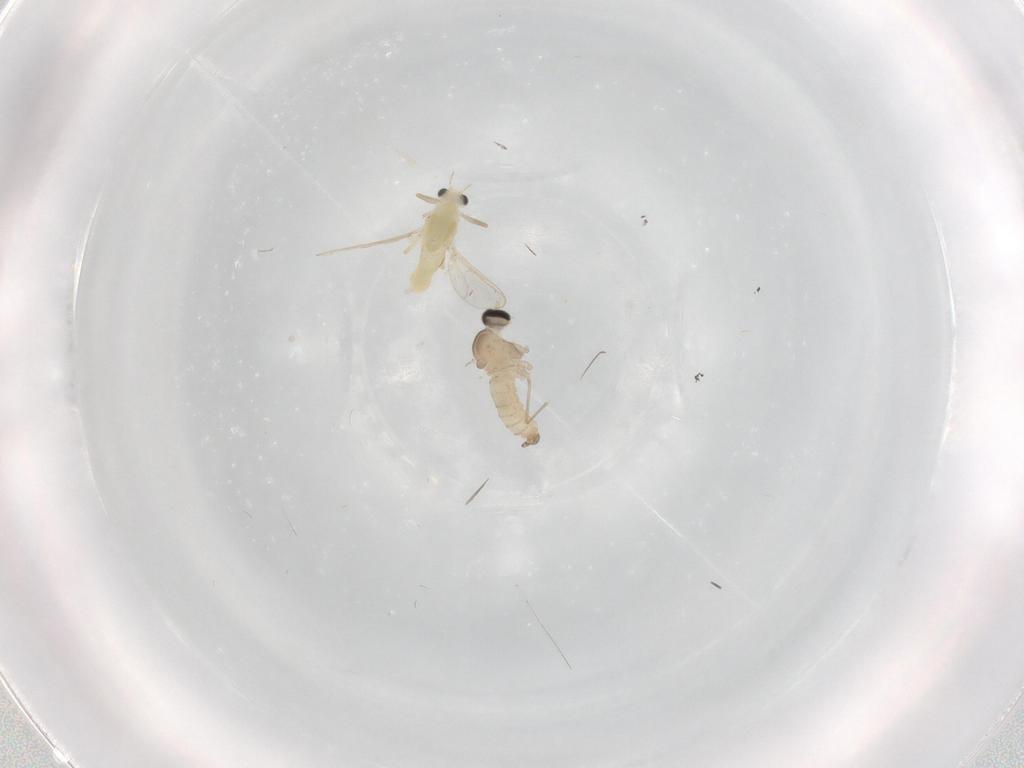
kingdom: Animalia
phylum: Arthropoda
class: Insecta
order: Diptera
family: Cecidomyiidae
